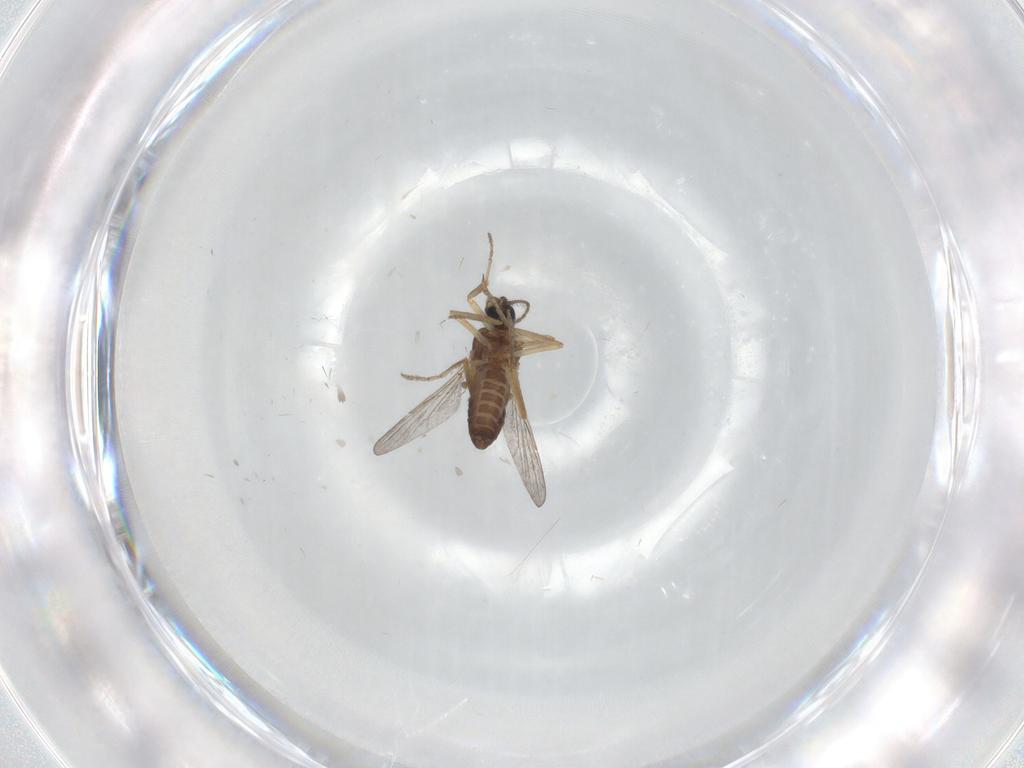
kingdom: Animalia
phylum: Arthropoda
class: Insecta
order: Diptera
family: Ceratopogonidae
